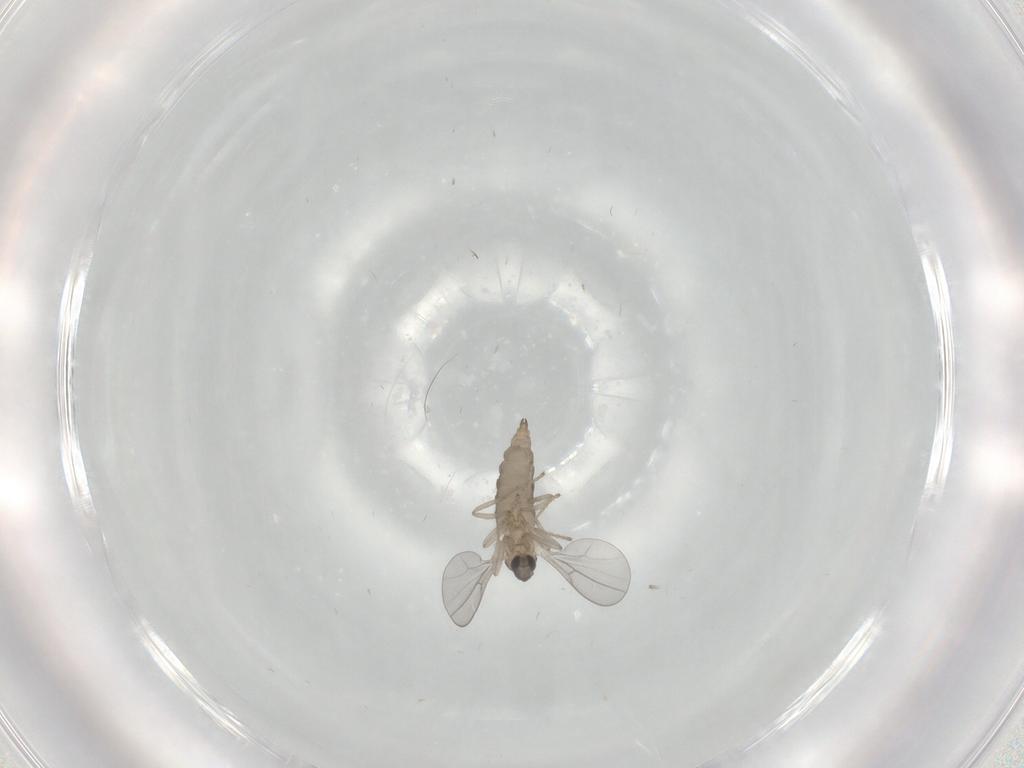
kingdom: Animalia
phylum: Arthropoda
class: Insecta
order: Diptera
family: Cecidomyiidae
